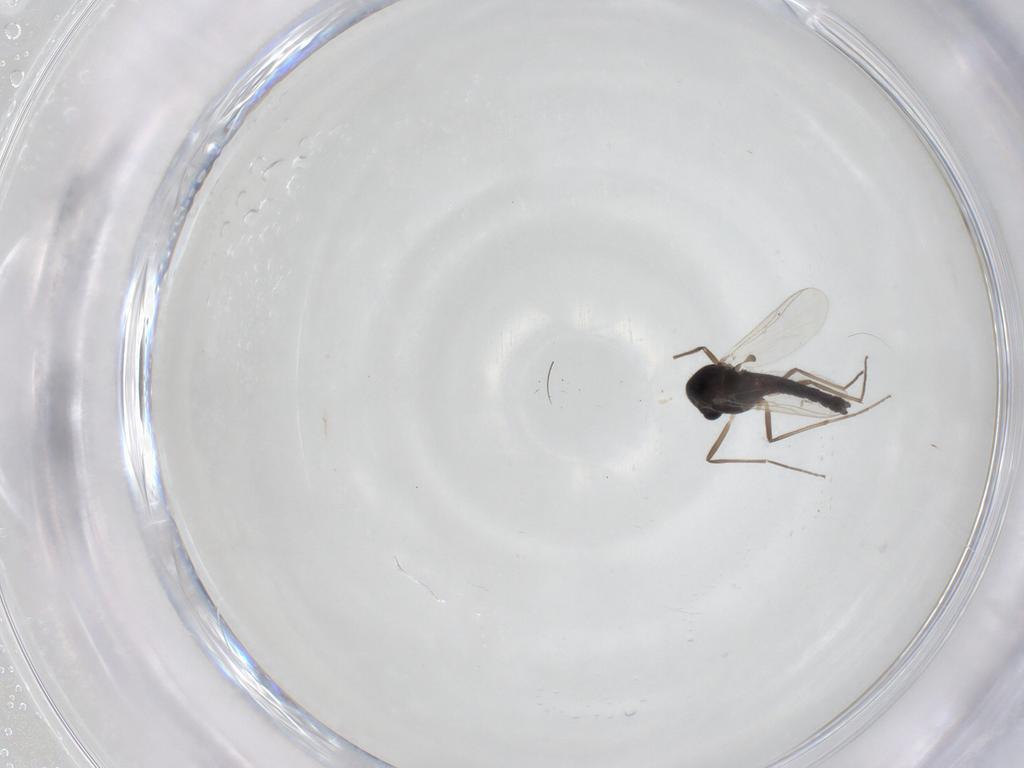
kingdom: Animalia
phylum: Arthropoda
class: Insecta
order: Diptera
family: Chironomidae
